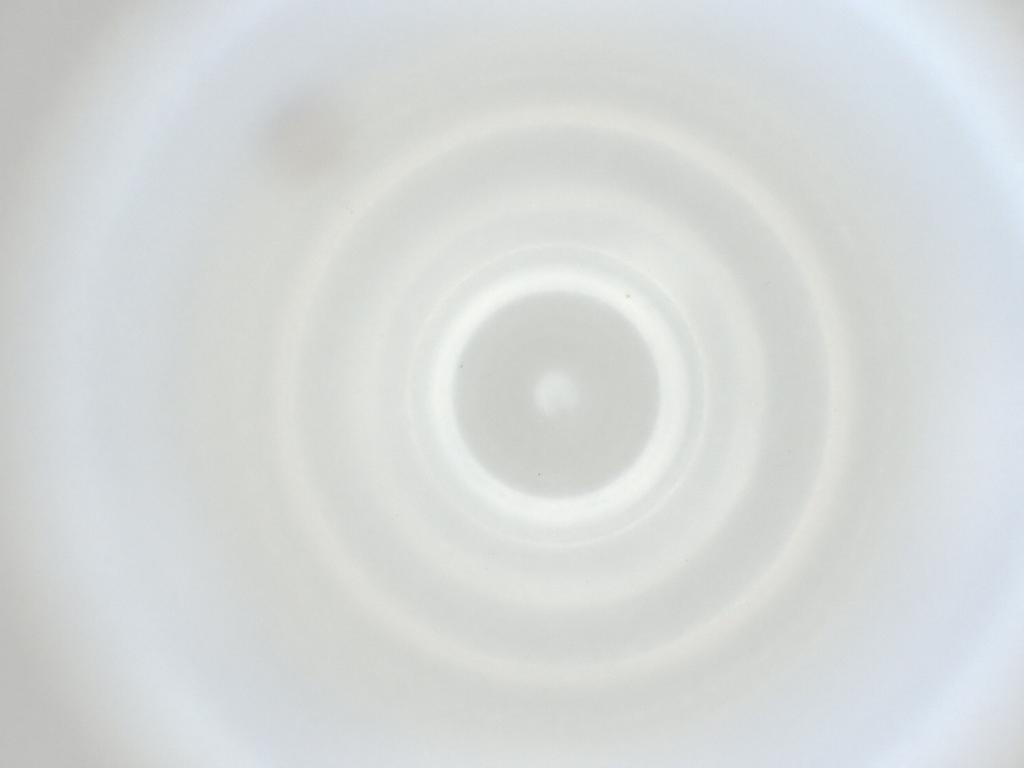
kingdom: Animalia
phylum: Arthropoda
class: Insecta
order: Diptera
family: Cecidomyiidae
